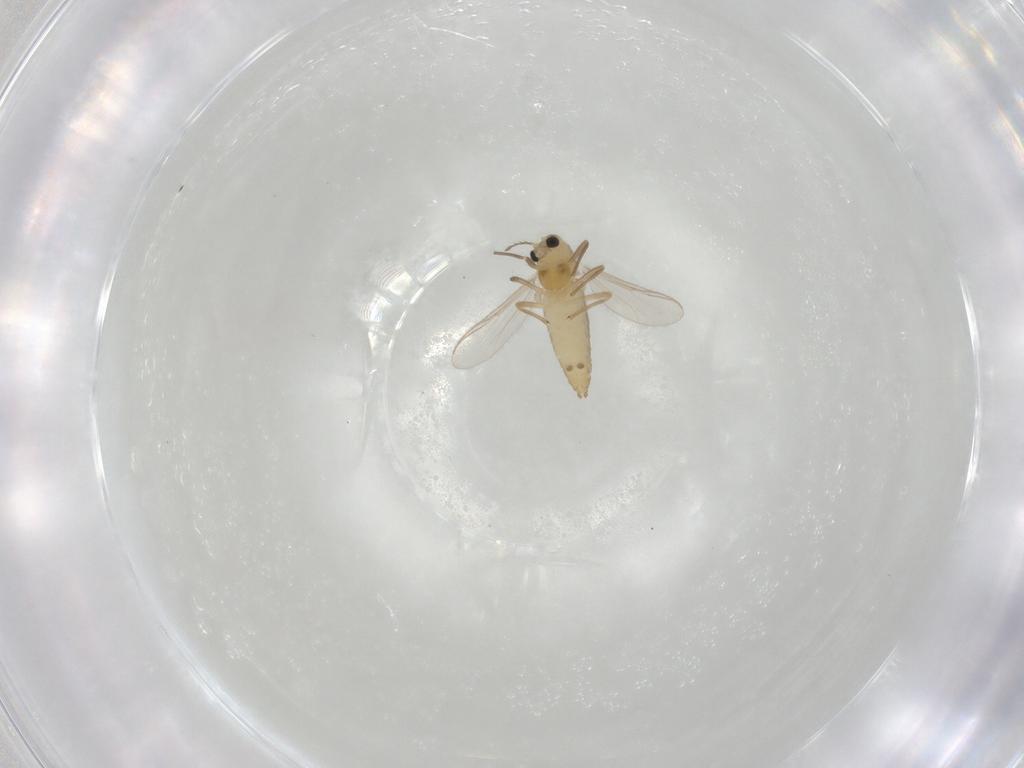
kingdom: Animalia
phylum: Arthropoda
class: Insecta
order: Diptera
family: Chironomidae
